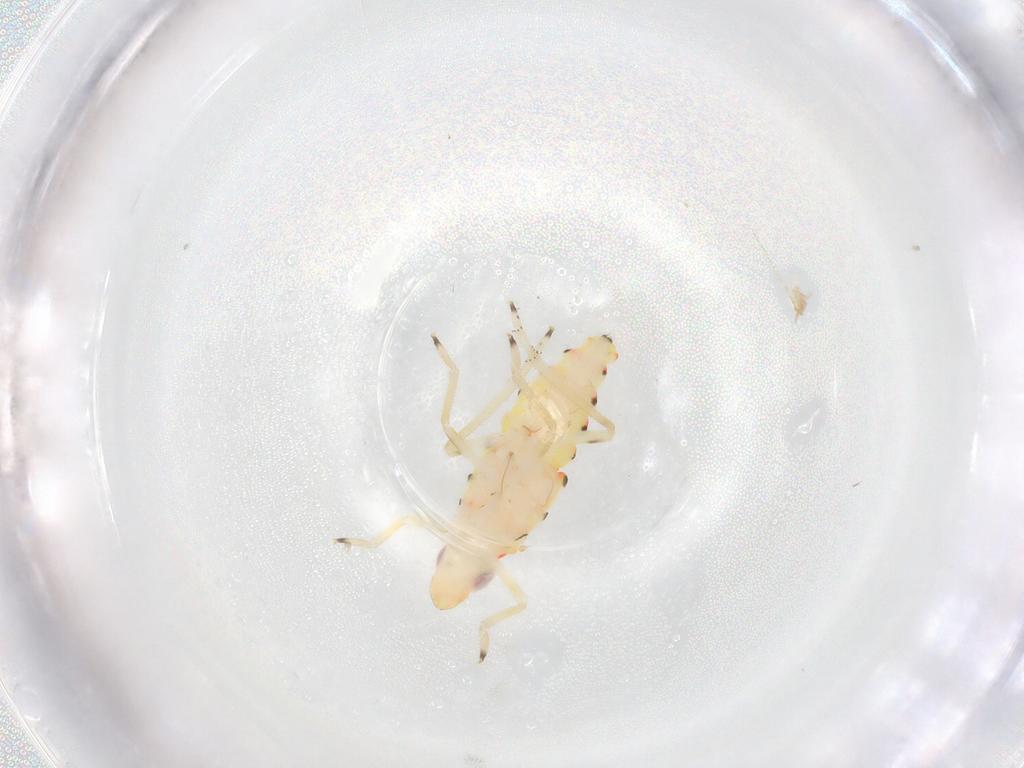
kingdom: Animalia
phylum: Arthropoda
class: Insecta
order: Hemiptera
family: Tropiduchidae
